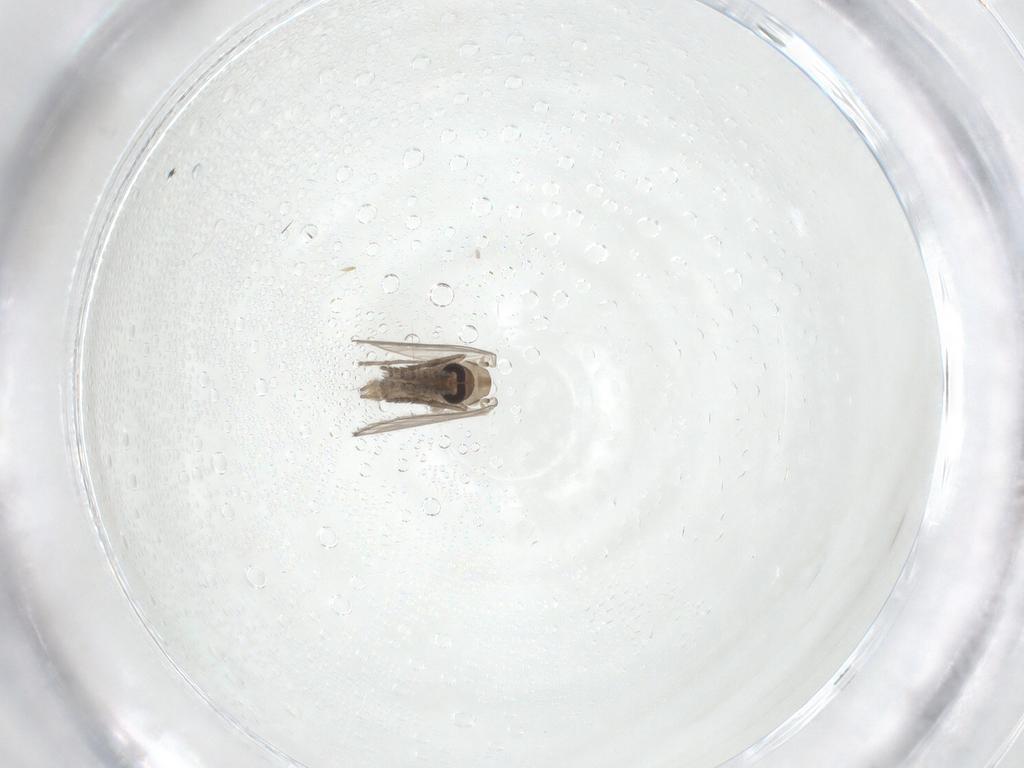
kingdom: Animalia
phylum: Arthropoda
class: Insecta
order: Diptera
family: Psychodidae
